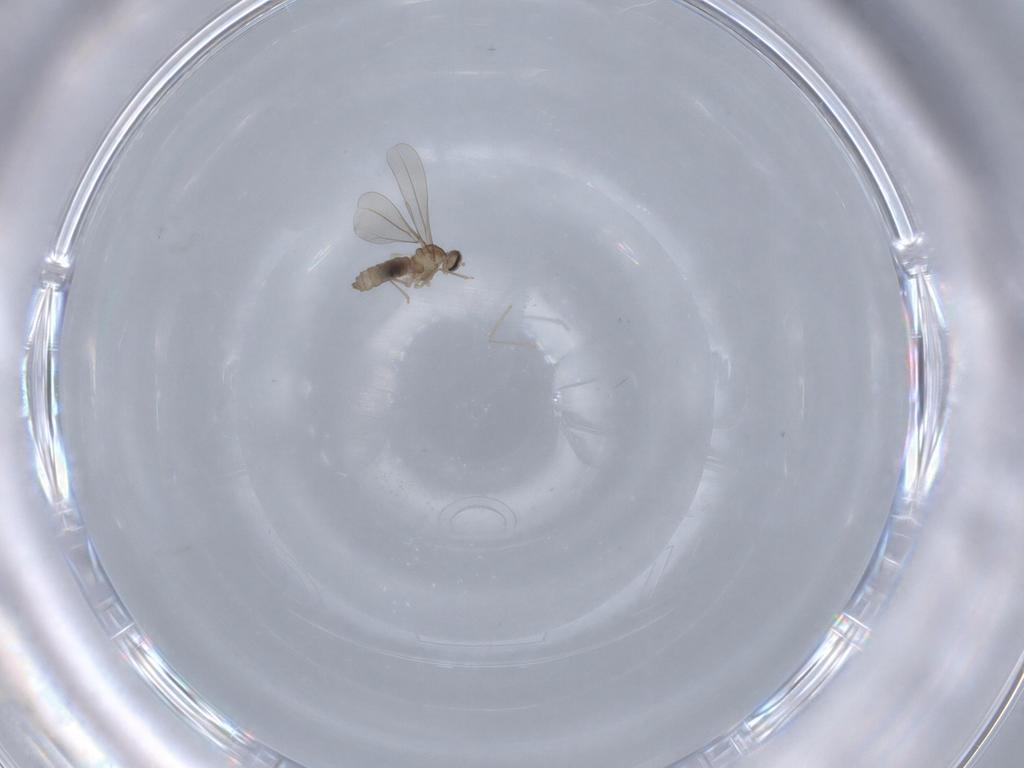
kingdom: Animalia
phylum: Arthropoda
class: Insecta
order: Diptera
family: Cecidomyiidae
